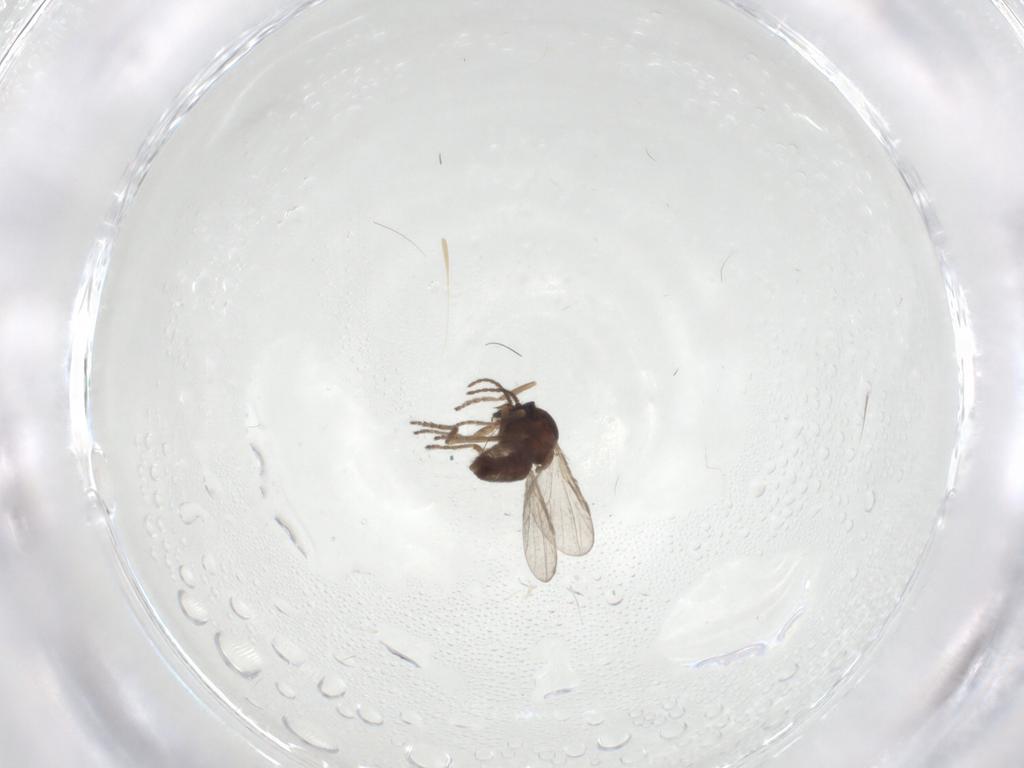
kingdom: Animalia
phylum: Arthropoda
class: Insecta
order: Diptera
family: Ceratopogonidae
